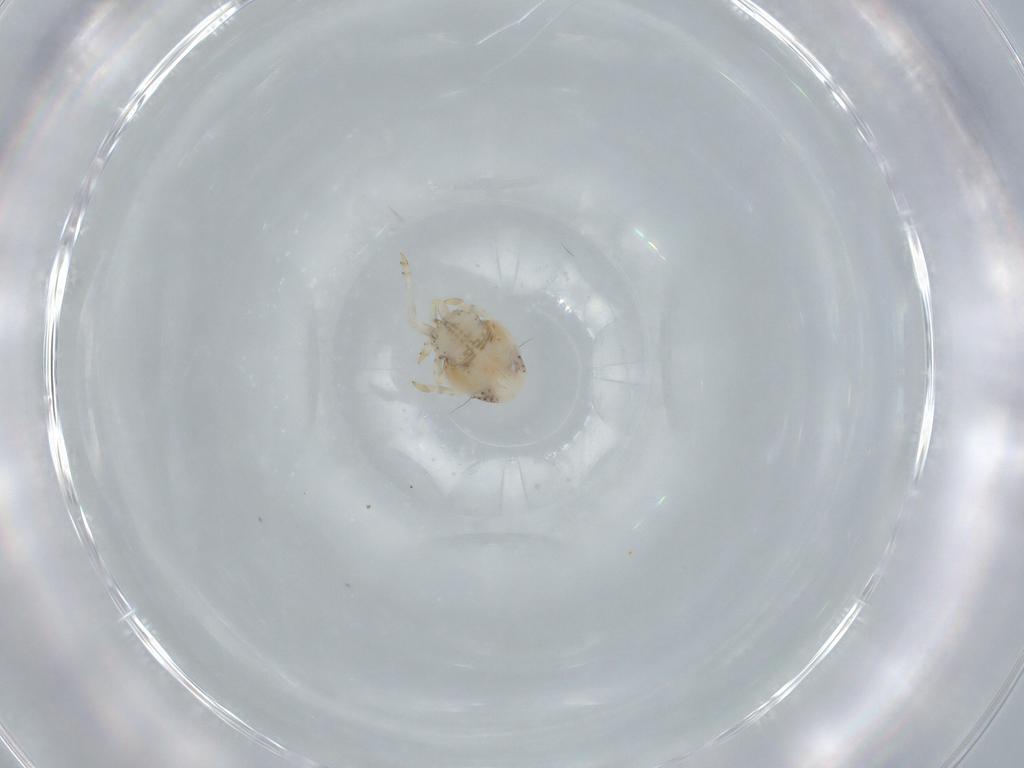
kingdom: Animalia
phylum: Arthropoda
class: Insecta
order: Hemiptera
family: Acanaloniidae
